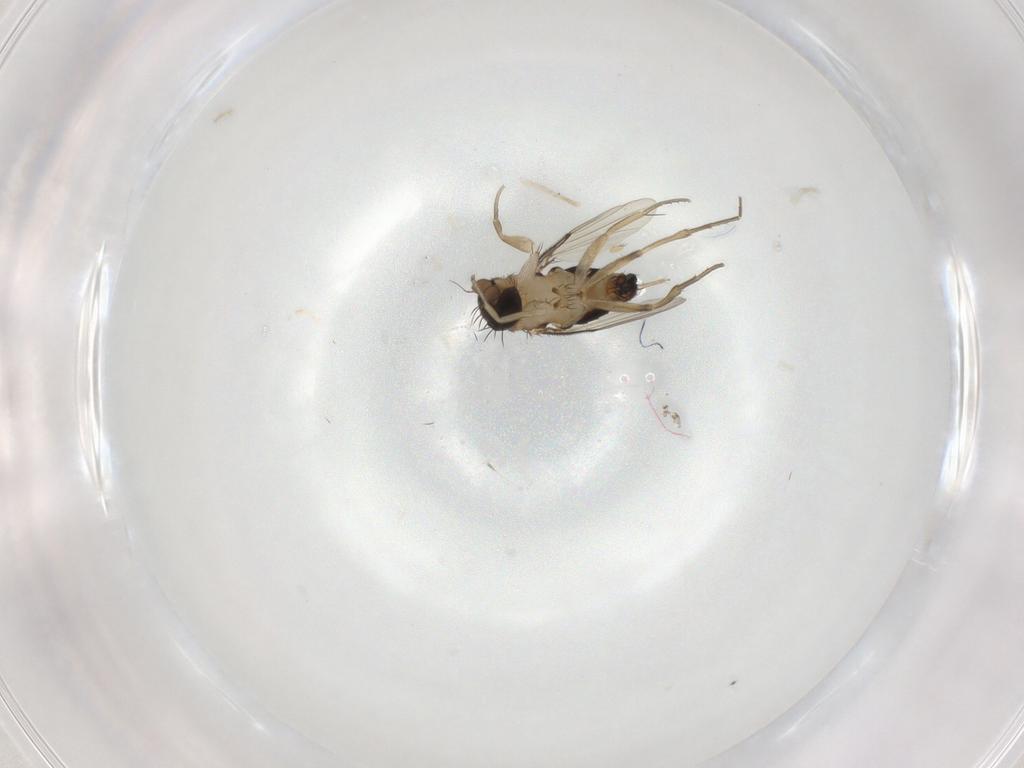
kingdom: Animalia
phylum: Arthropoda
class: Insecta
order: Diptera
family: Phoridae
